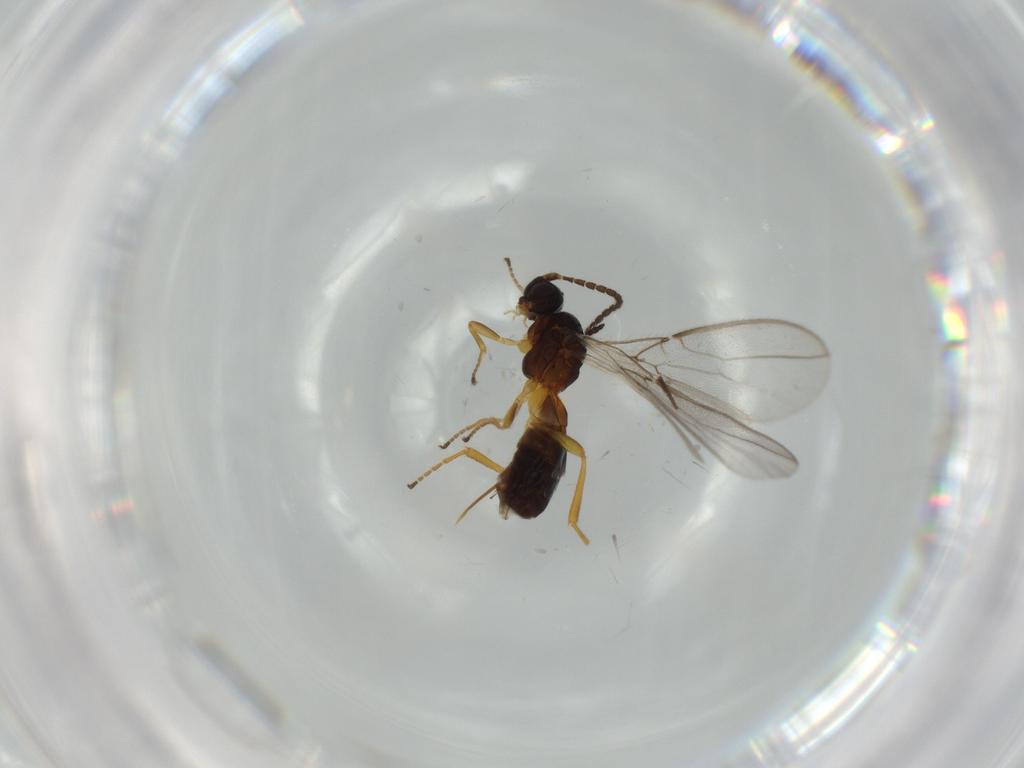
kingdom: Animalia
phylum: Arthropoda
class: Insecta
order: Hymenoptera
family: Braconidae
